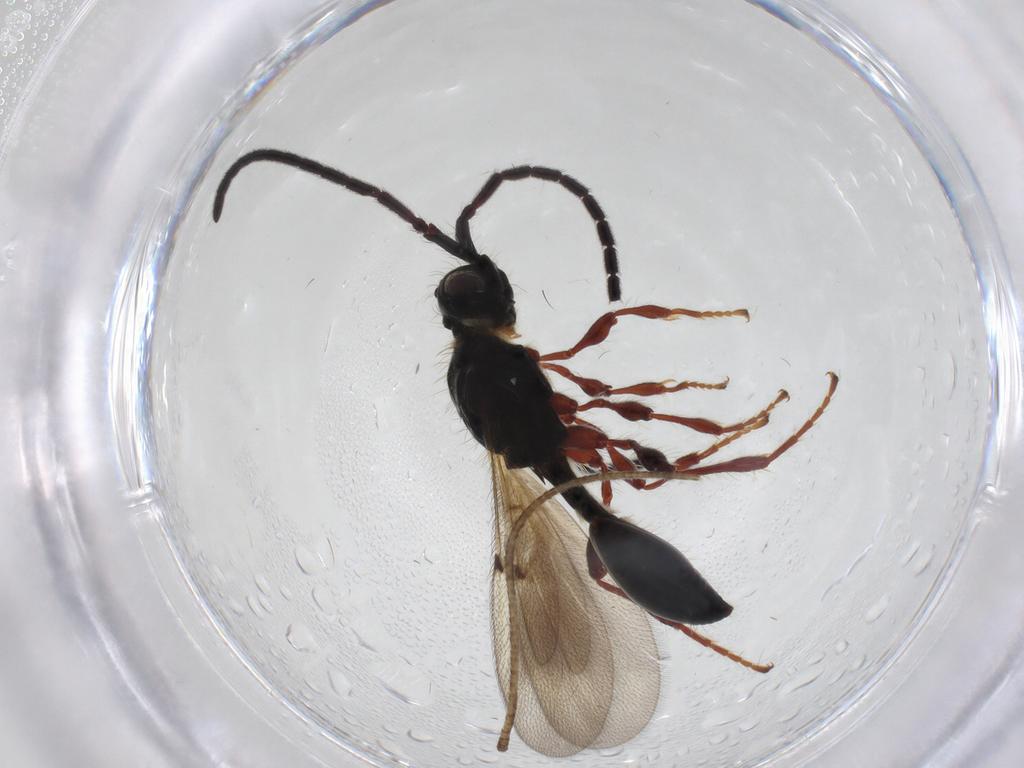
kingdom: Animalia
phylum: Arthropoda
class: Insecta
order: Hymenoptera
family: Diapriidae
